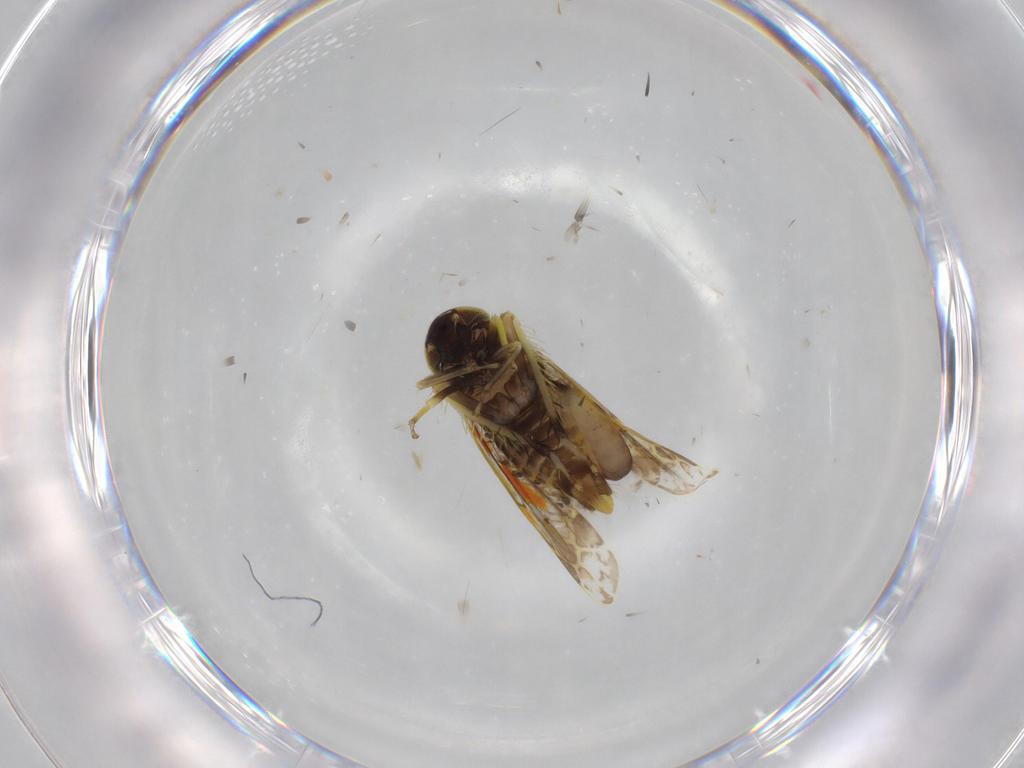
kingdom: Animalia
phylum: Arthropoda
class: Insecta
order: Hemiptera
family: Cicadellidae
